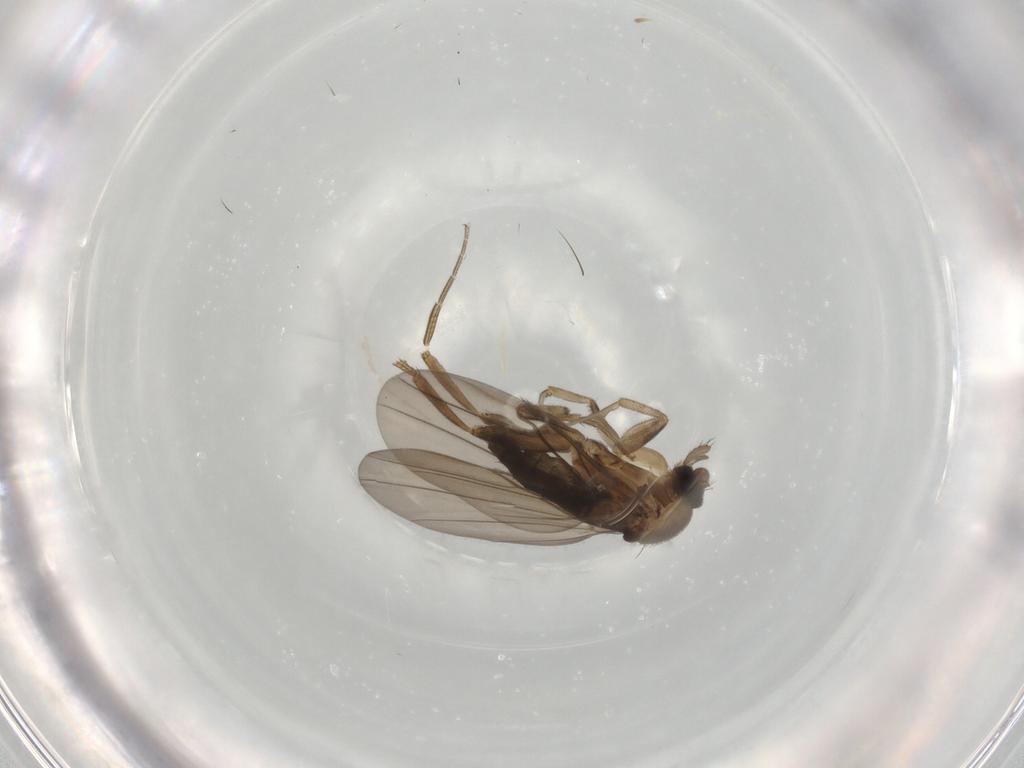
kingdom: Animalia
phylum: Arthropoda
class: Insecta
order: Diptera
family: Phoridae
